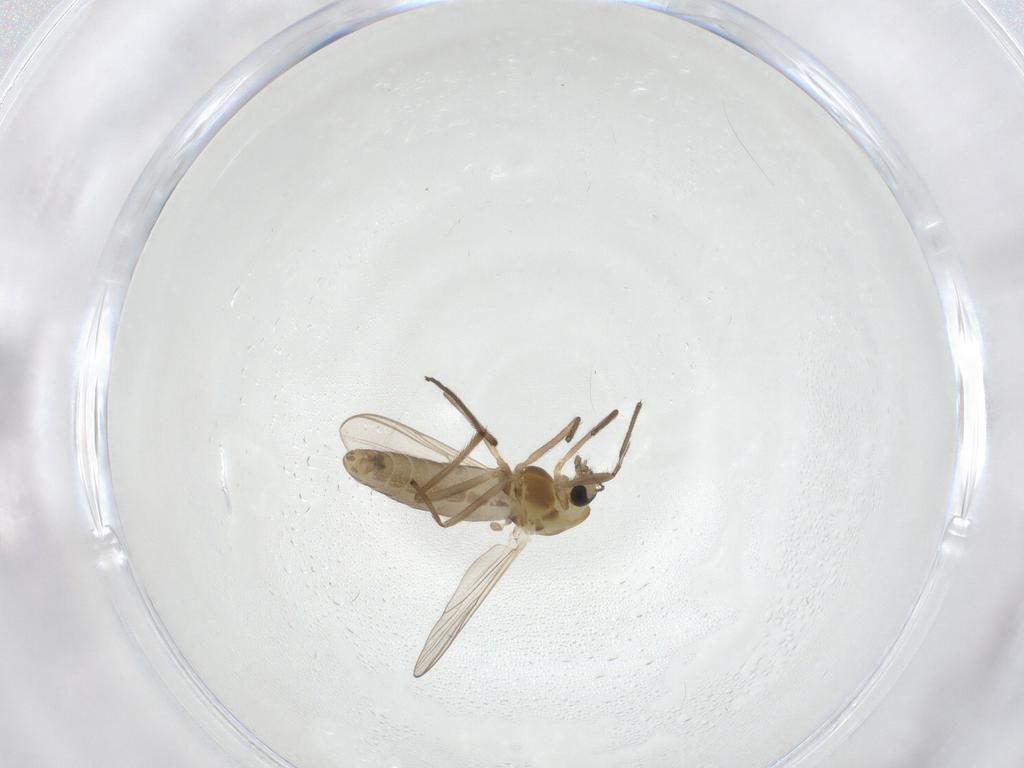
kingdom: Animalia
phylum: Arthropoda
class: Insecta
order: Diptera
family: Chironomidae
